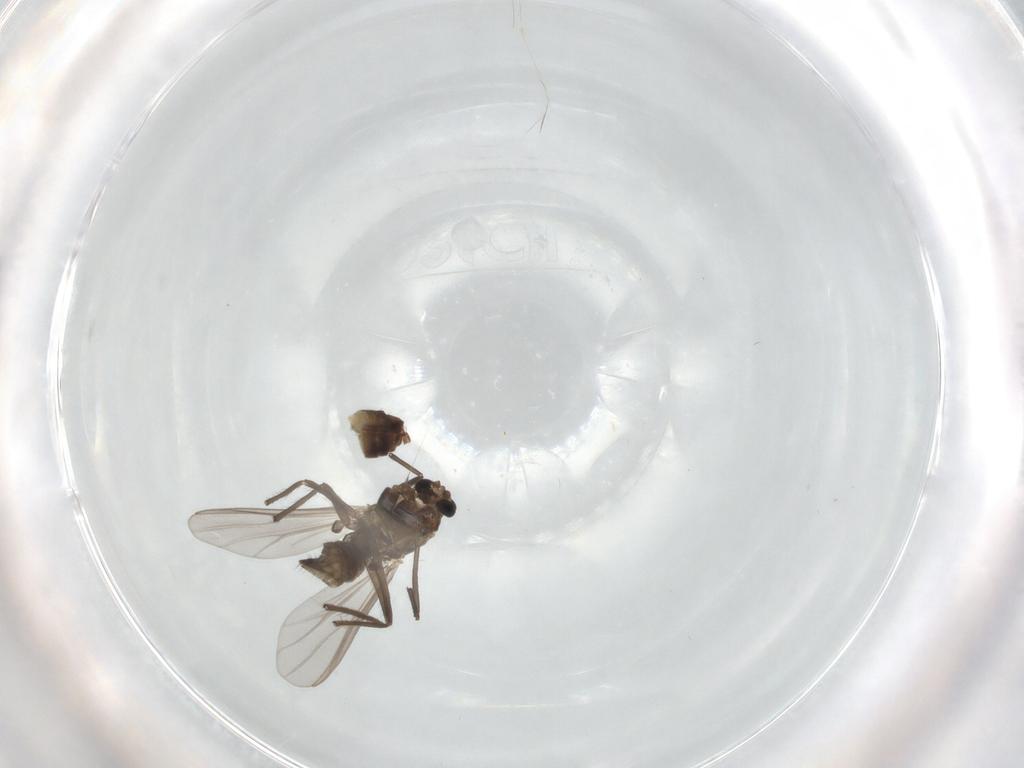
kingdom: Animalia
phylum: Arthropoda
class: Insecta
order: Diptera
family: Chironomidae
